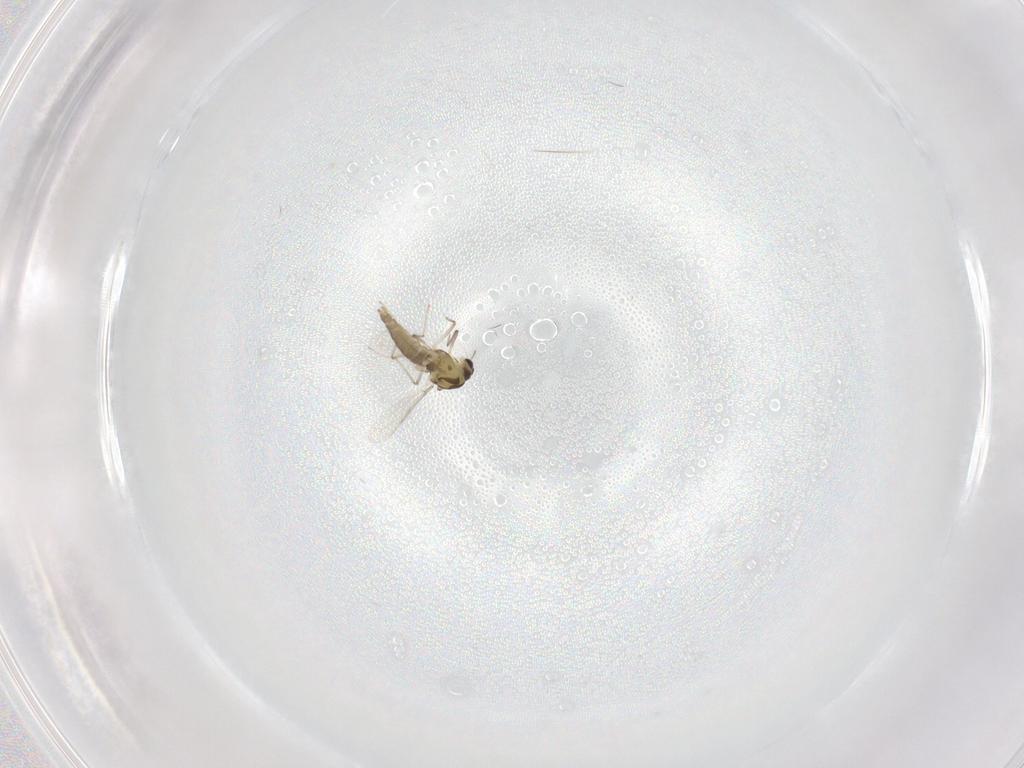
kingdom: Animalia
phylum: Arthropoda
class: Insecta
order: Diptera
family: Chironomidae
